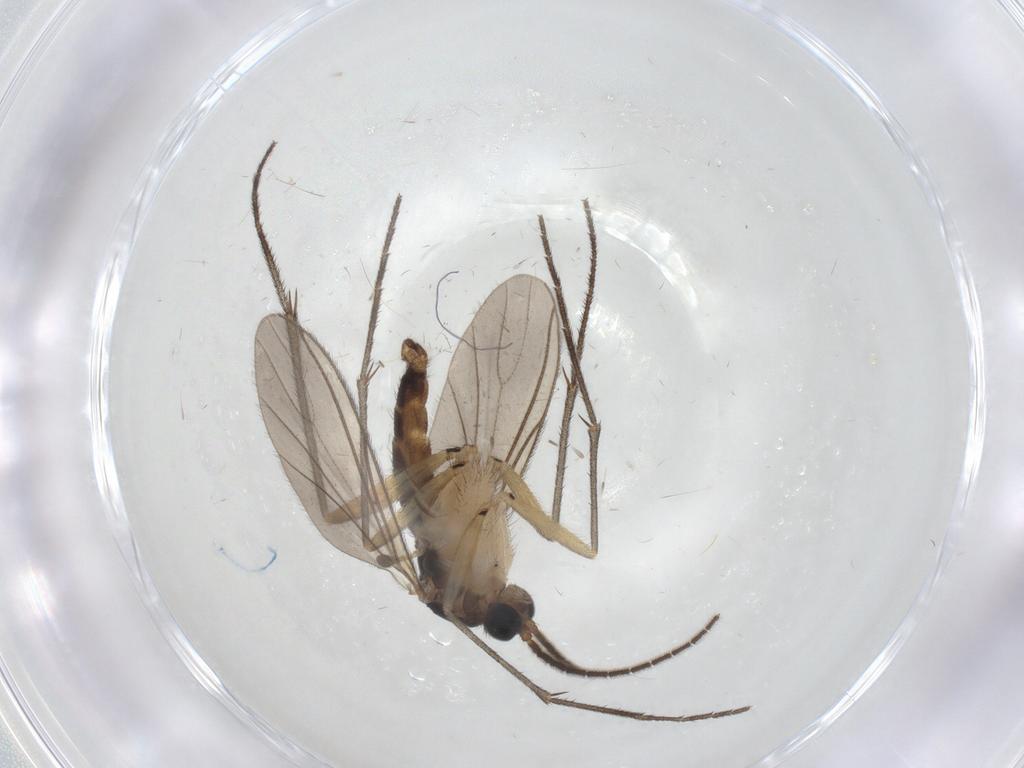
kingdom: Animalia
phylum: Arthropoda
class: Insecta
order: Diptera
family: Sciaridae
